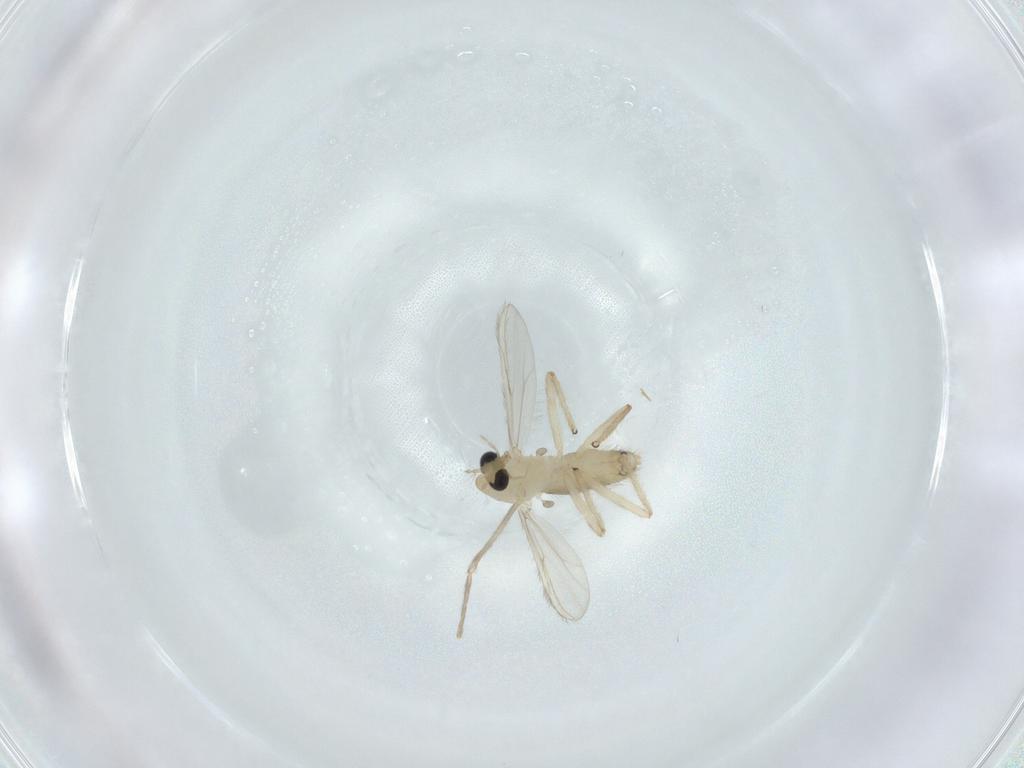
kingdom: Animalia
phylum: Arthropoda
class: Insecta
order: Diptera
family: Chironomidae
